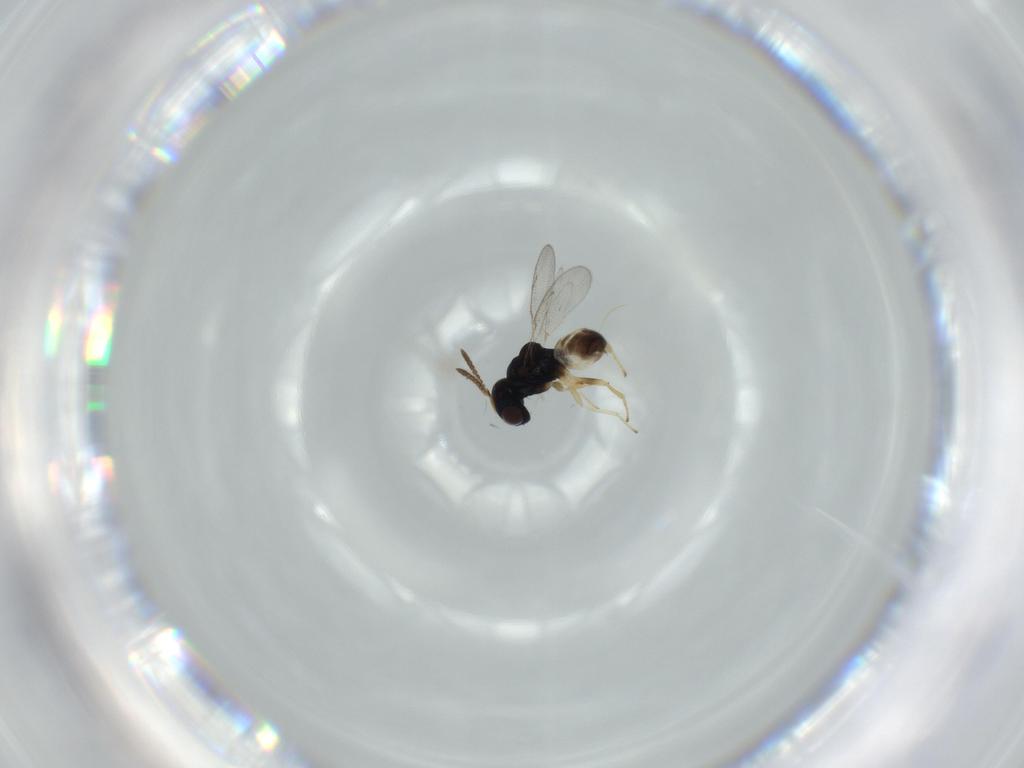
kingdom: Animalia
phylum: Arthropoda
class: Insecta
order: Hymenoptera
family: Pteromalidae
